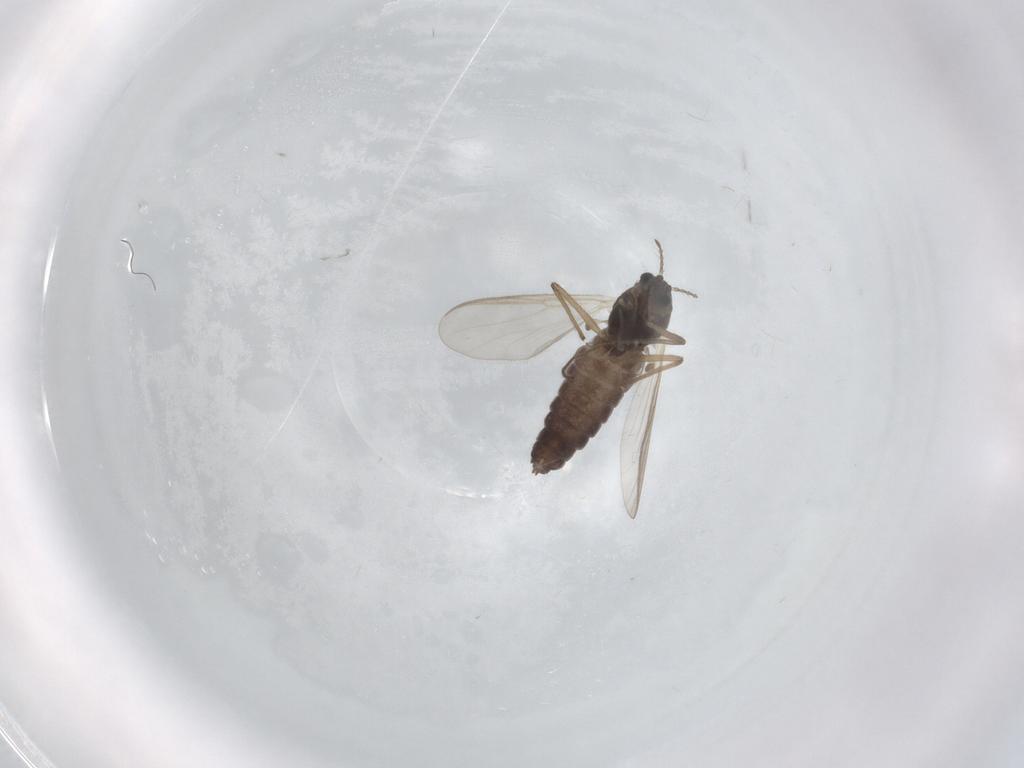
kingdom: Animalia
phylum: Arthropoda
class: Insecta
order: Diptera
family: Chironomidae
